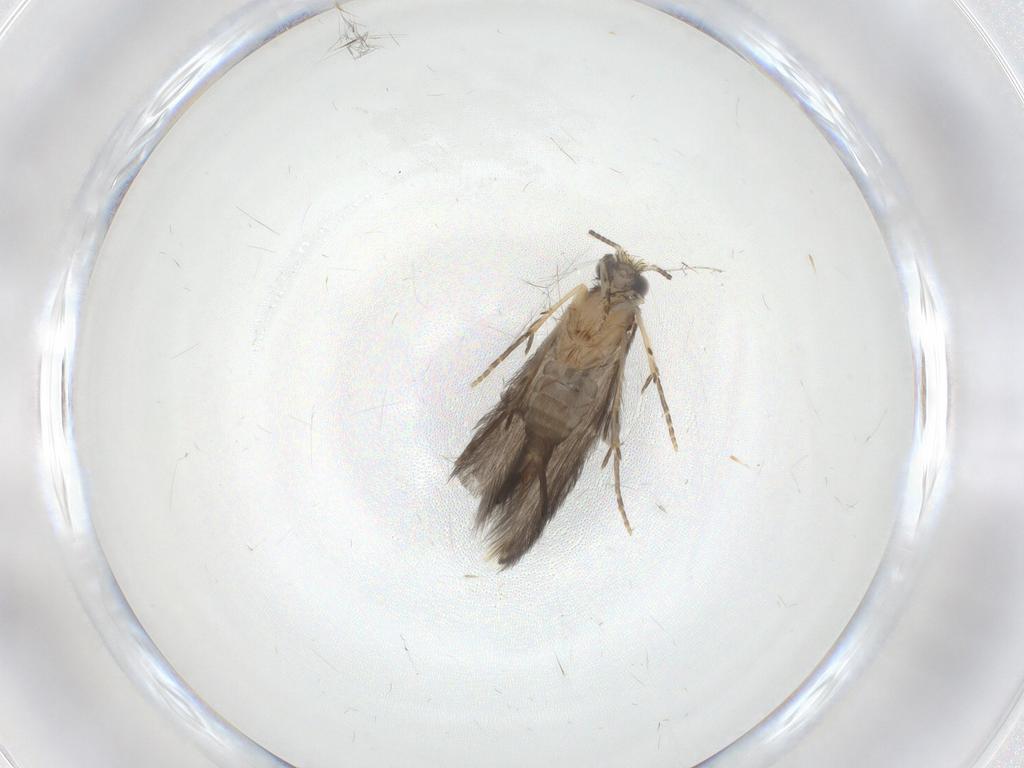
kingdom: Animalia
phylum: Arthropoda
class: Insecta
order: Trichoptera
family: Hydroptilidae
